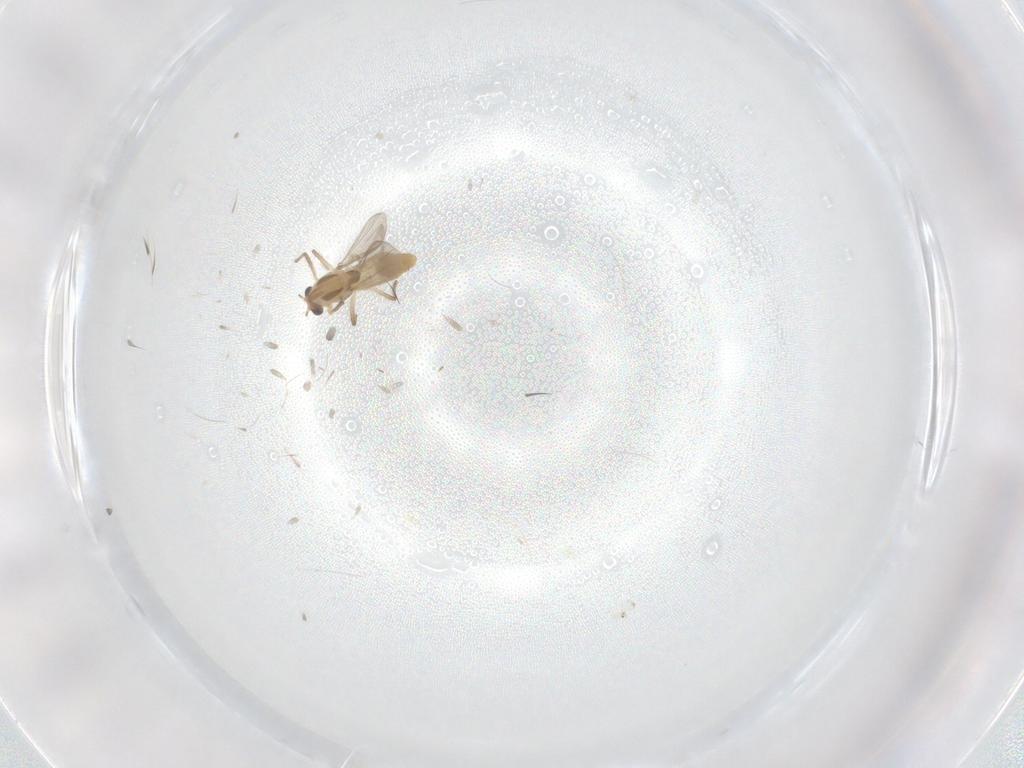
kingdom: Animalia
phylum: Arthropoda
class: Insecta
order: Diptera
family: Chironomidae
